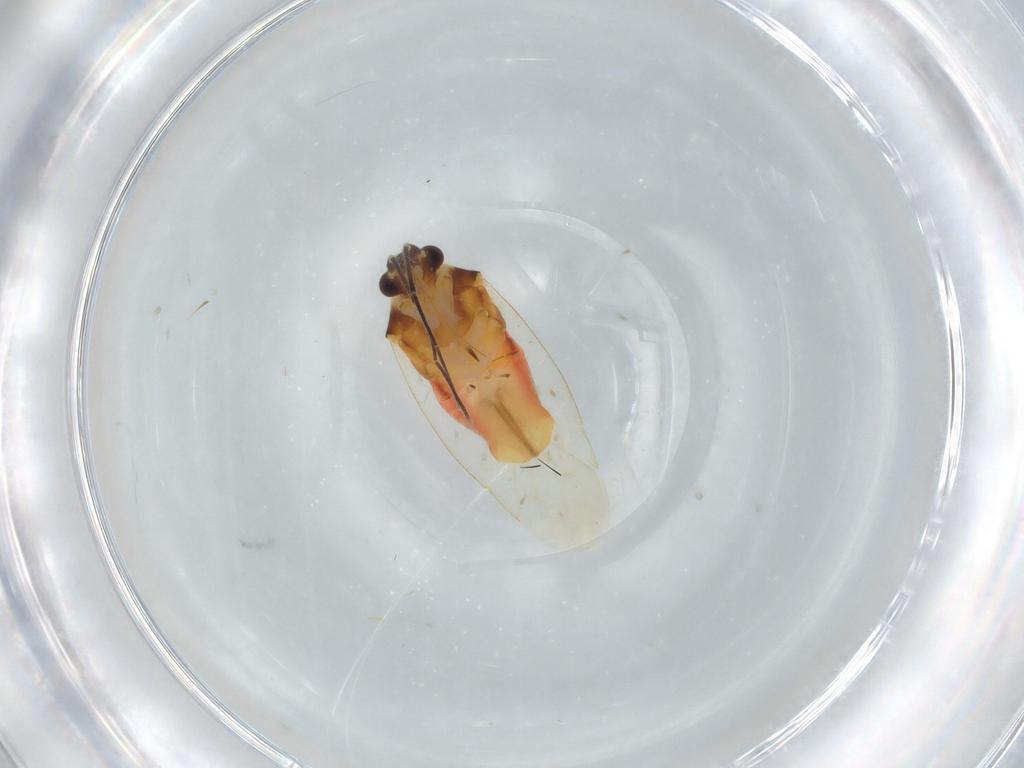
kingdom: Animalia
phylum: Arthropoda
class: Insecta
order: Hemiptera
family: Miridae
